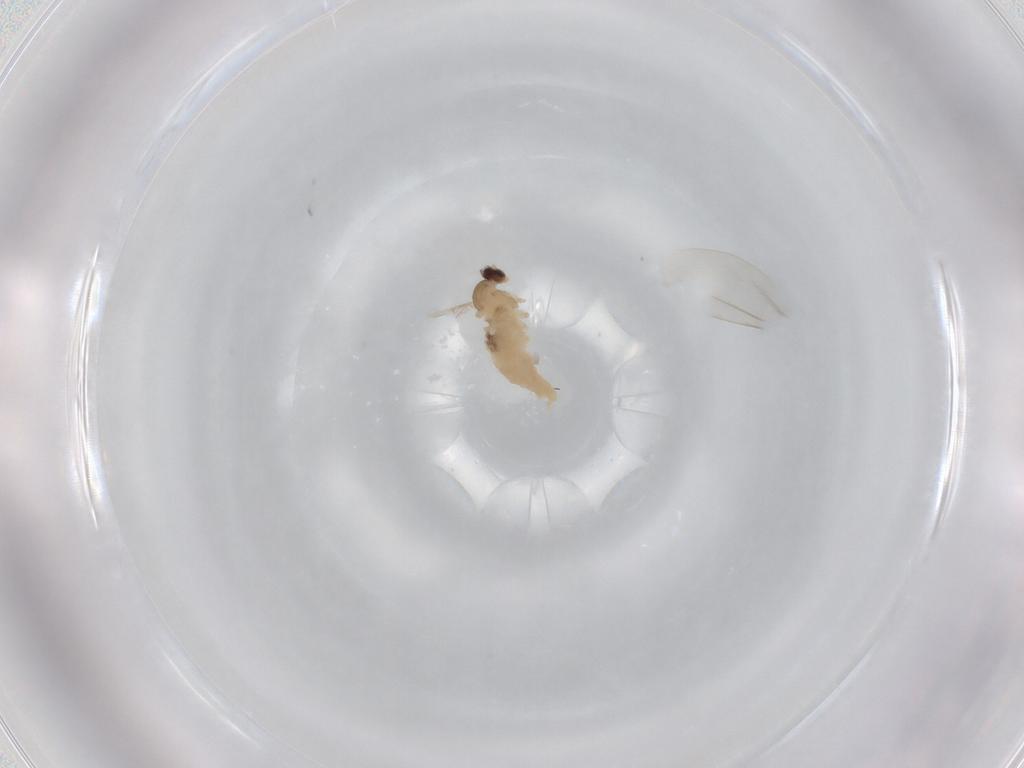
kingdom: Animalia
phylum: Arthropoda
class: Insecta
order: Diptera
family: Cecidomyiidae
